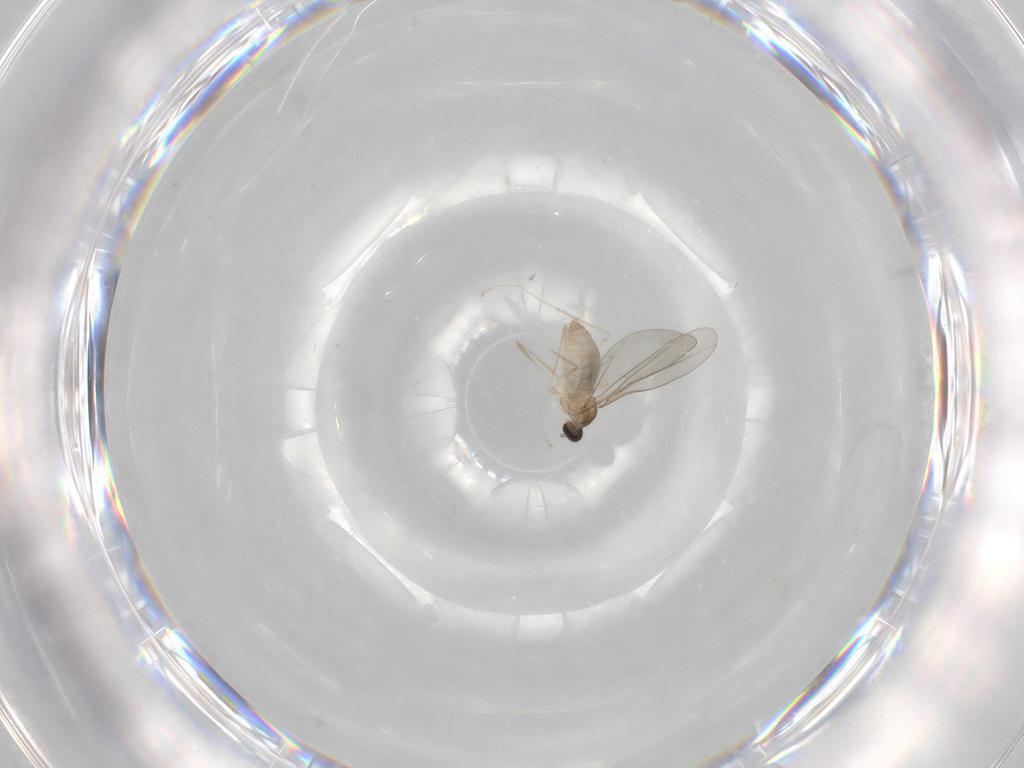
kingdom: Animalia
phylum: Arthropoda
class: Insecta
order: Diptera
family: Cecidomyiidae
